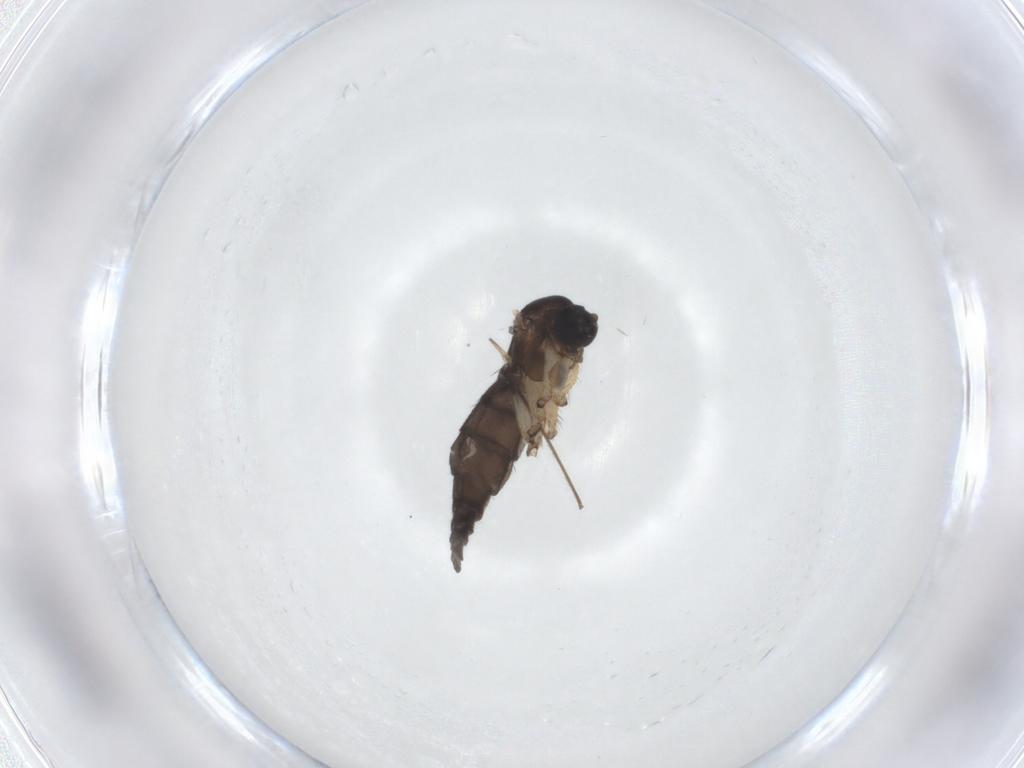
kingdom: Animalia
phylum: Arthropoda
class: Insecta
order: Diptera
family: Sciaridae
